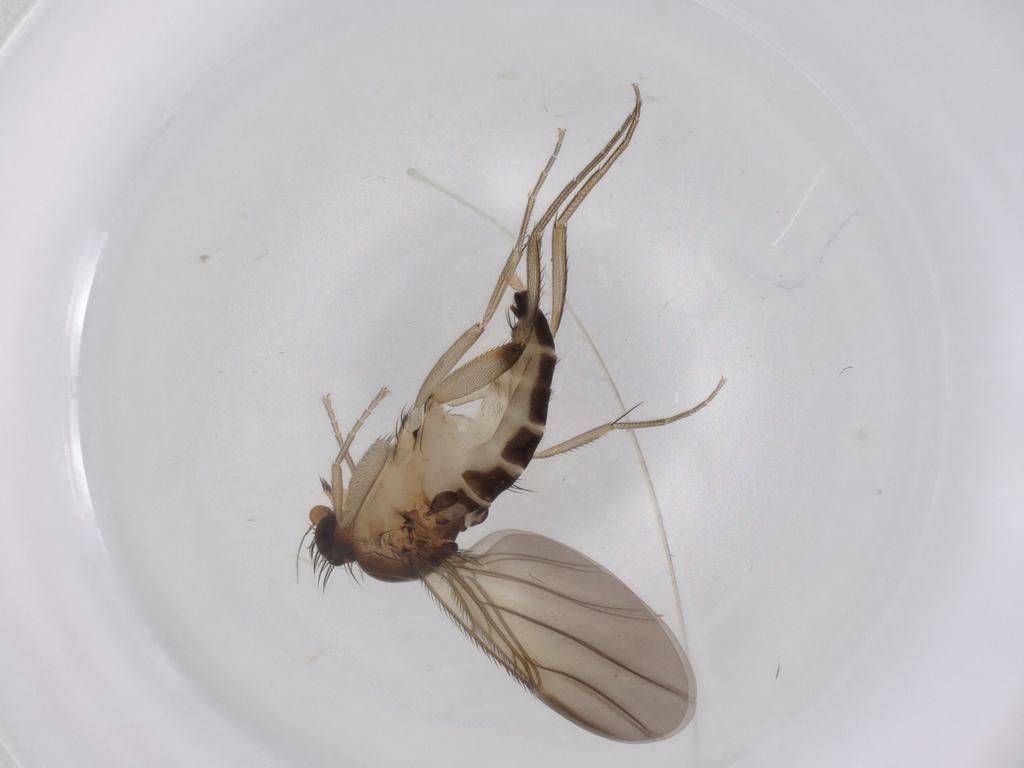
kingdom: Animalia
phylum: Arthropoda
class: Insecta
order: Diptera
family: Phoridae
